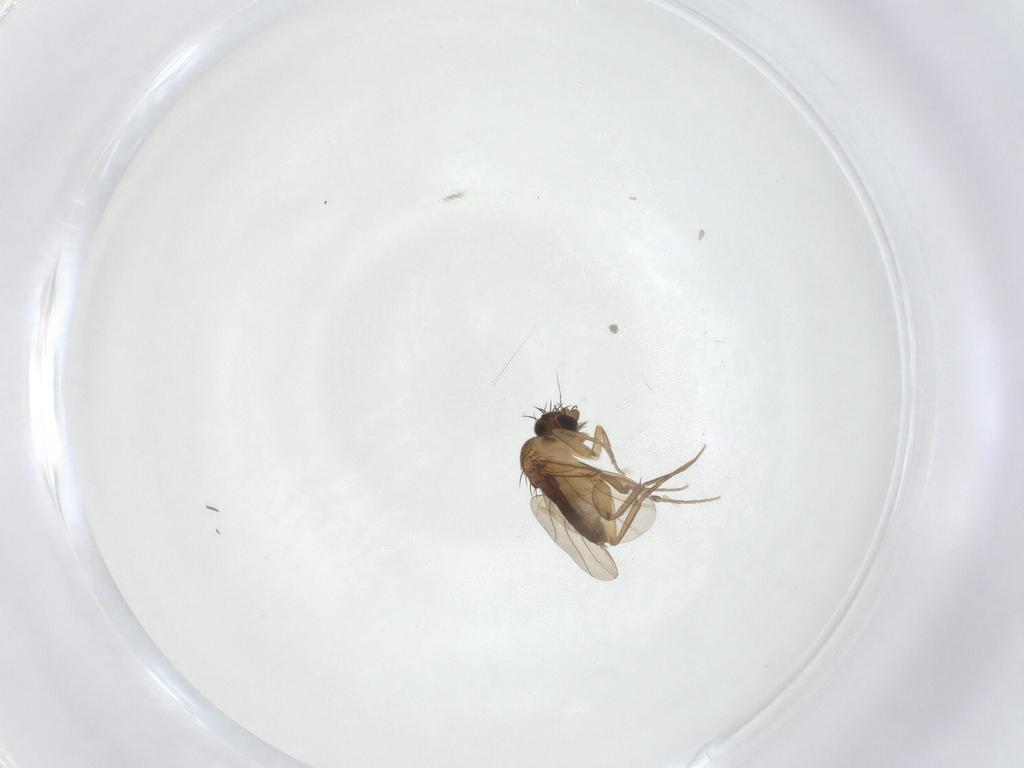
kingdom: Animalia
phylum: Arthropoda
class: Insecta
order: Diptera
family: Phoridae
